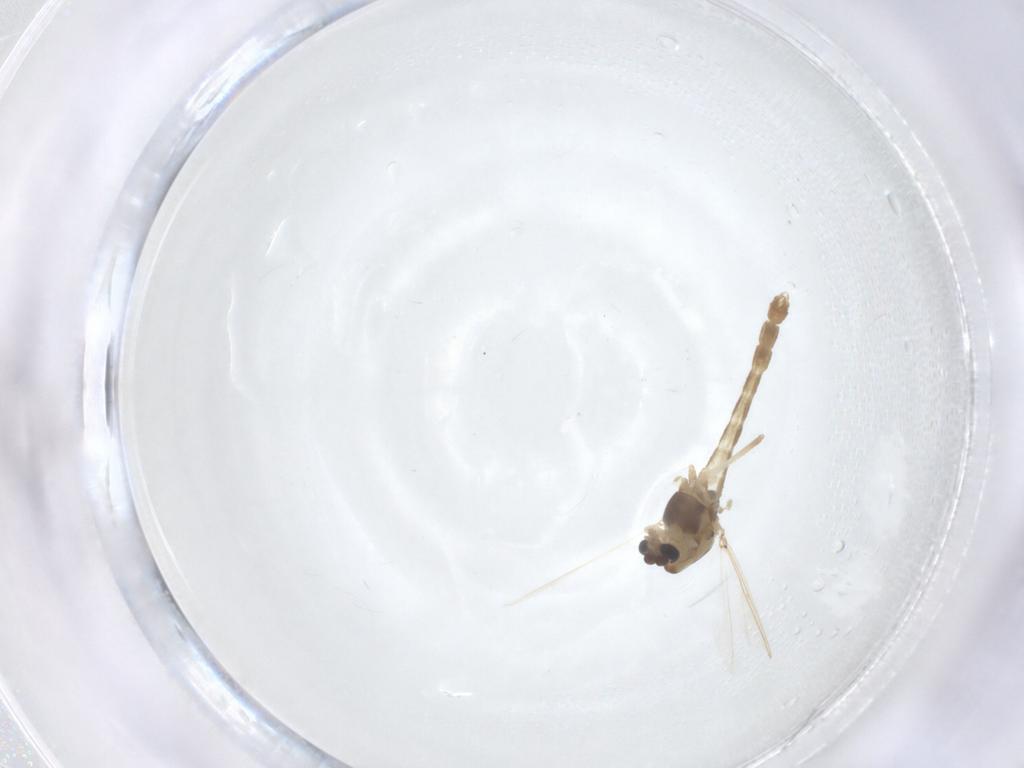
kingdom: Animalia
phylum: Arthropoda
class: Insecta
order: Diptera
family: Chironomidae
